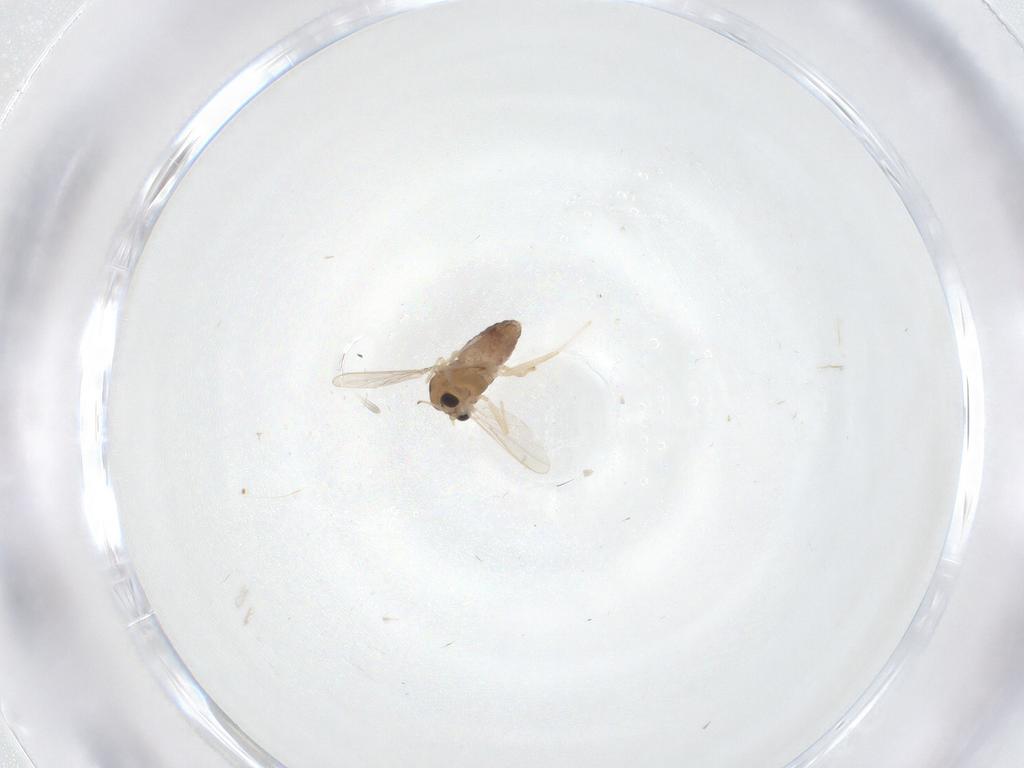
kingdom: Animalia
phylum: Arthropoda
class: Insecta
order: Diptera
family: Chironomidae
